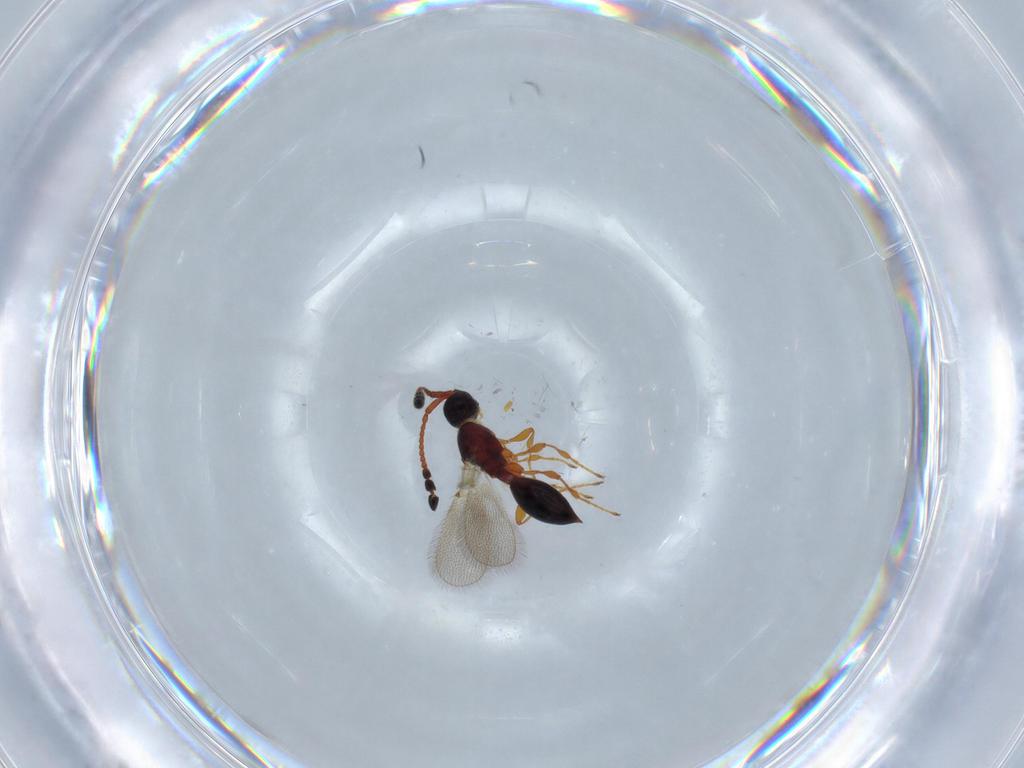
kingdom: Animalia
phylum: Arthropoda
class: Insecta
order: Hymenoptera
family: Diapriidae
